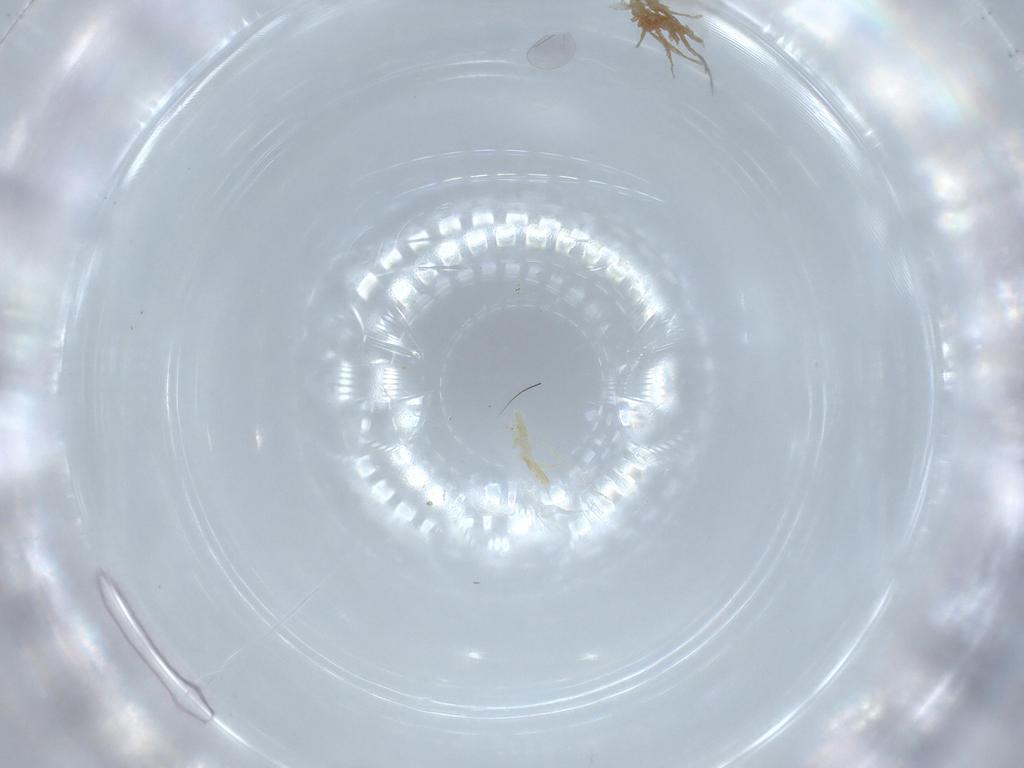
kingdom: Animalia
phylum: Arthropoda
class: Insecta
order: Diptera
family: Cecidomyiidae
